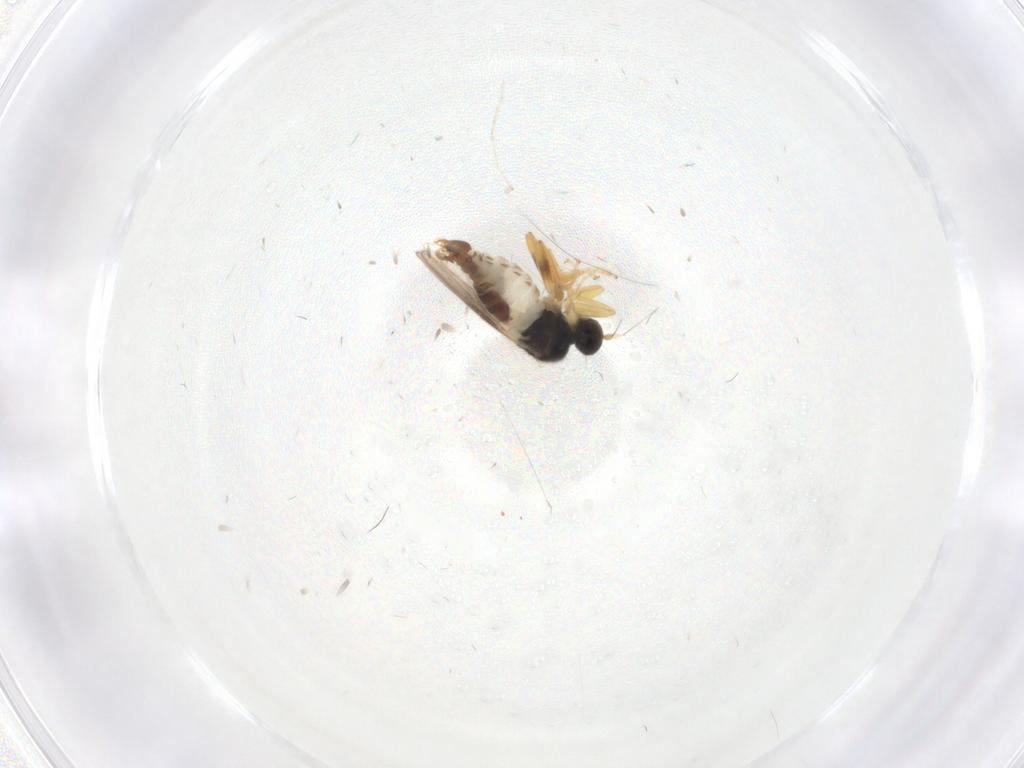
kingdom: Animalia
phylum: Arthropoda
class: Insecta
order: Diptera
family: Hybotidae
